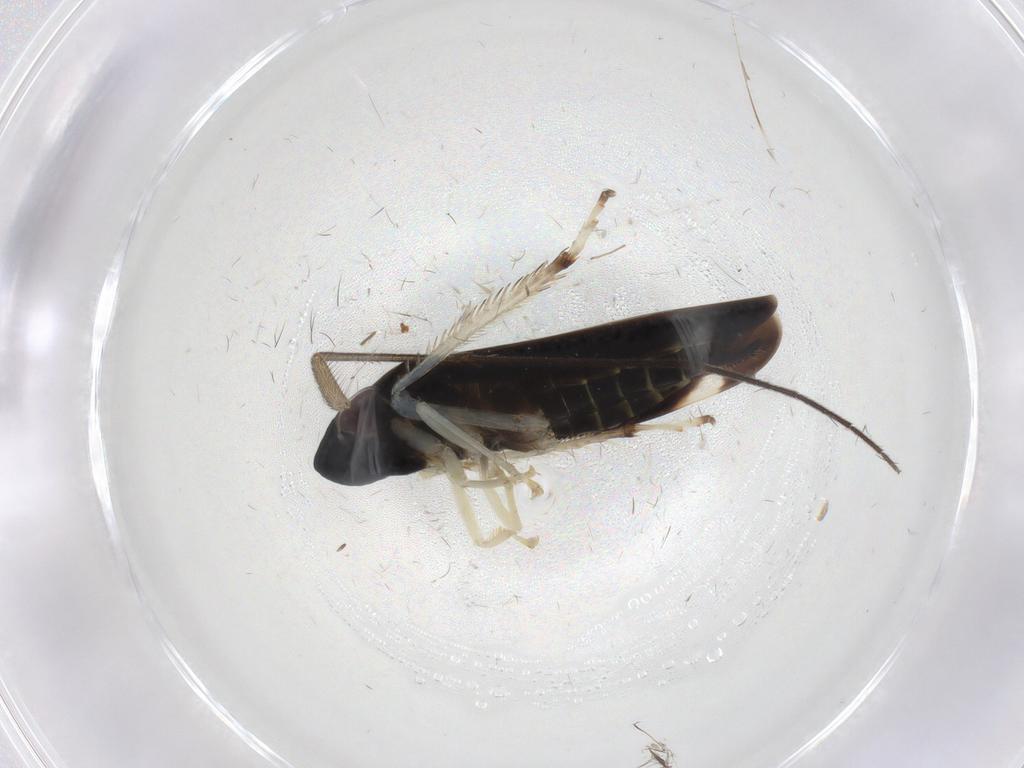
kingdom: Animalia
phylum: Arthropoda
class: Insecta
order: Hemiptera
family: Cicadellidae
